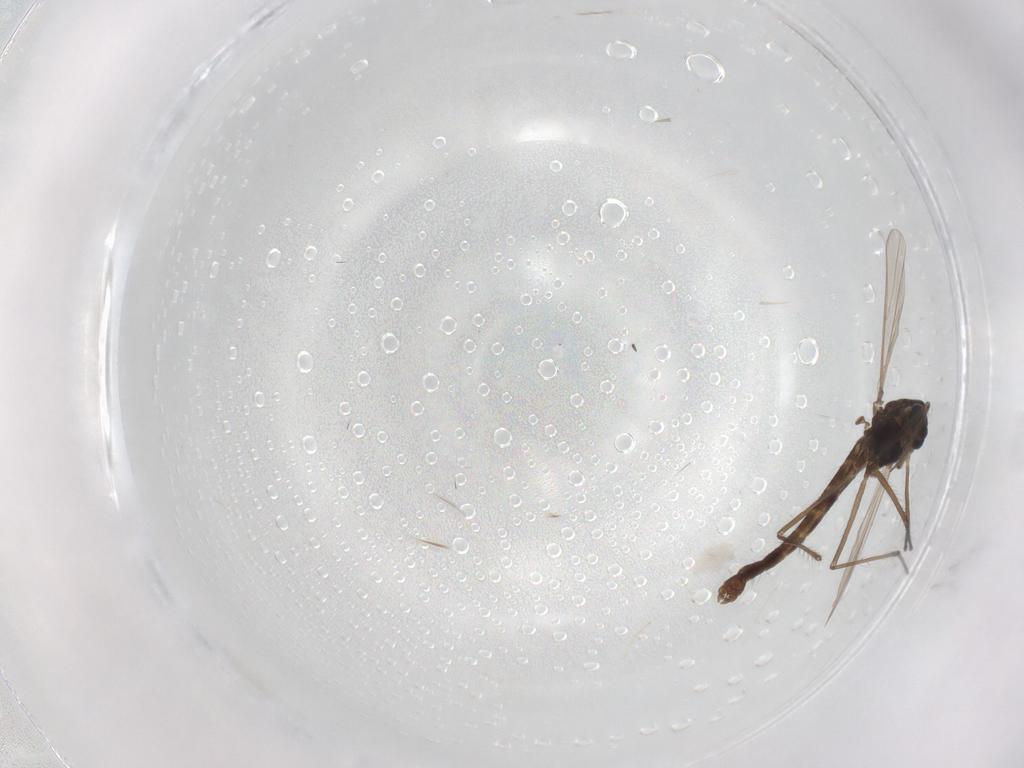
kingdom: Animalia
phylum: Arthropoda
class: Insecta
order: Diptera
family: Chironomidae
